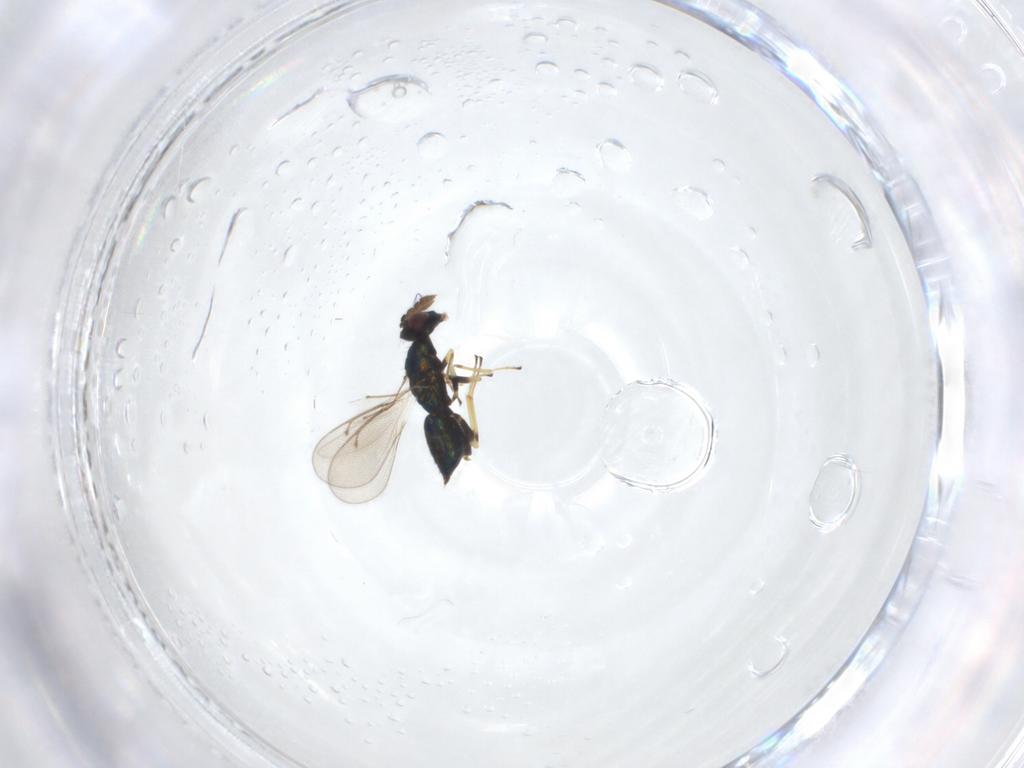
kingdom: Animalia
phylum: Arthropoda
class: Insecta
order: Hymenoptera
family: Eulophidae
